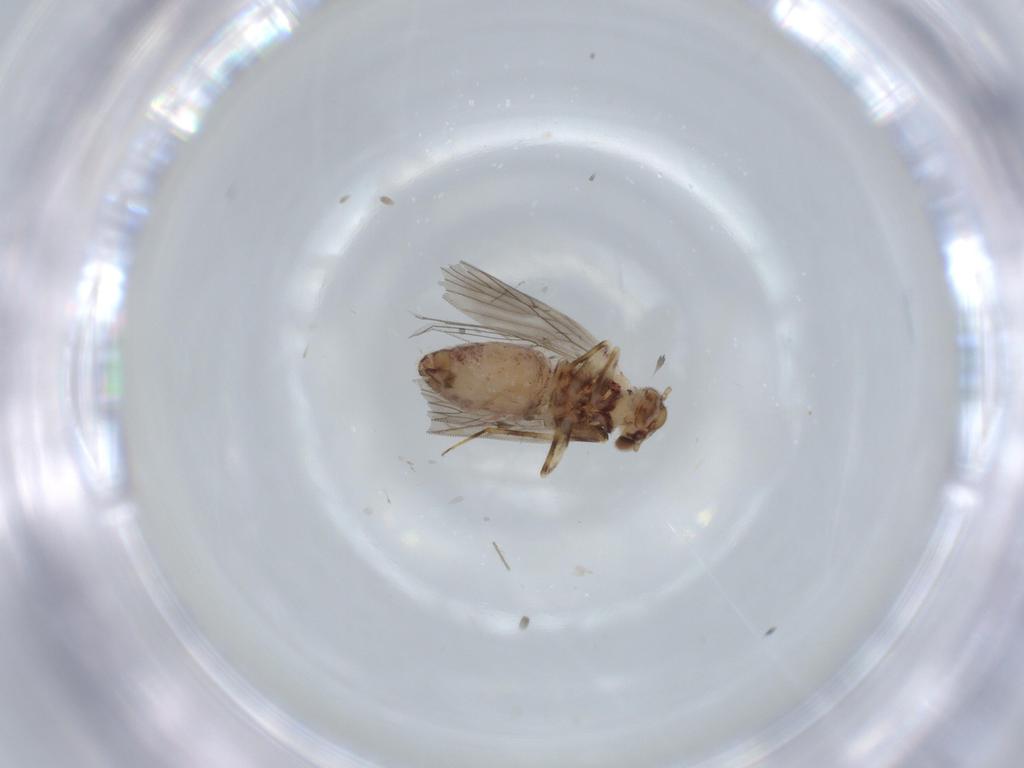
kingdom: Animalia
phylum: Arthropoda
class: Insecta
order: Psocodea
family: Lepidopsocidae
